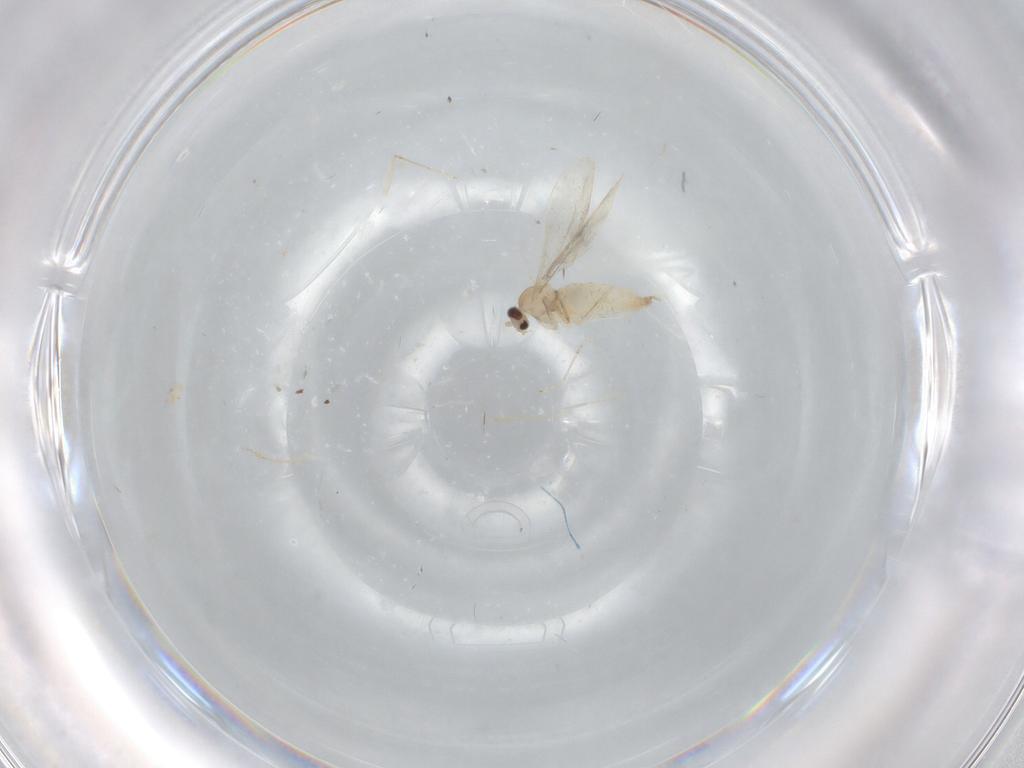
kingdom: Animalia
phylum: Arthropoda
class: Insecta
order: Diptera
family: Cecidomyiidae
